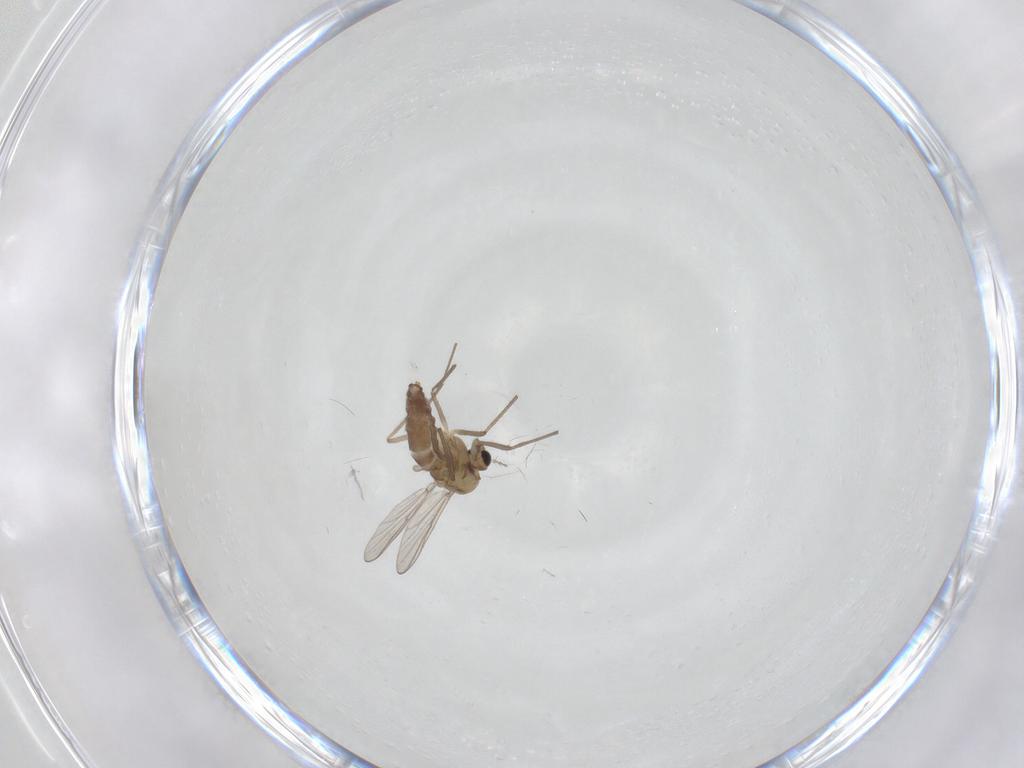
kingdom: Animalia
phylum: Arthropoda
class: Insecta
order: Diptera
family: Chironomidae
